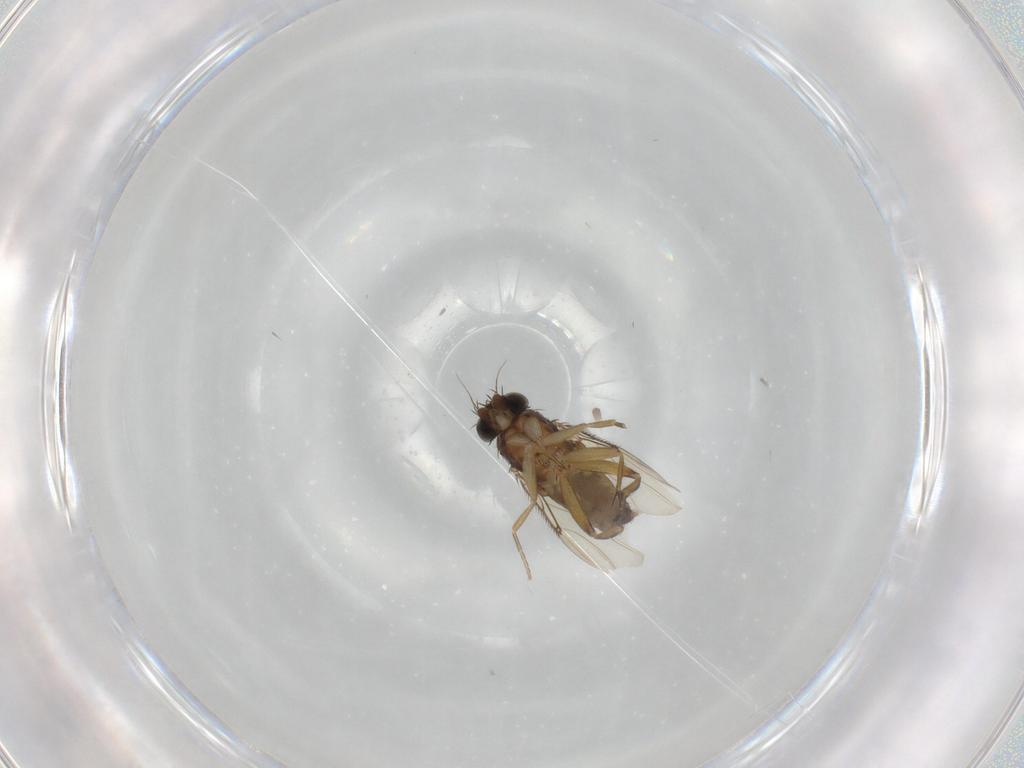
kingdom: Animalia
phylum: Arthropoda
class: Insecta
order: Diptera
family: Phoridae
